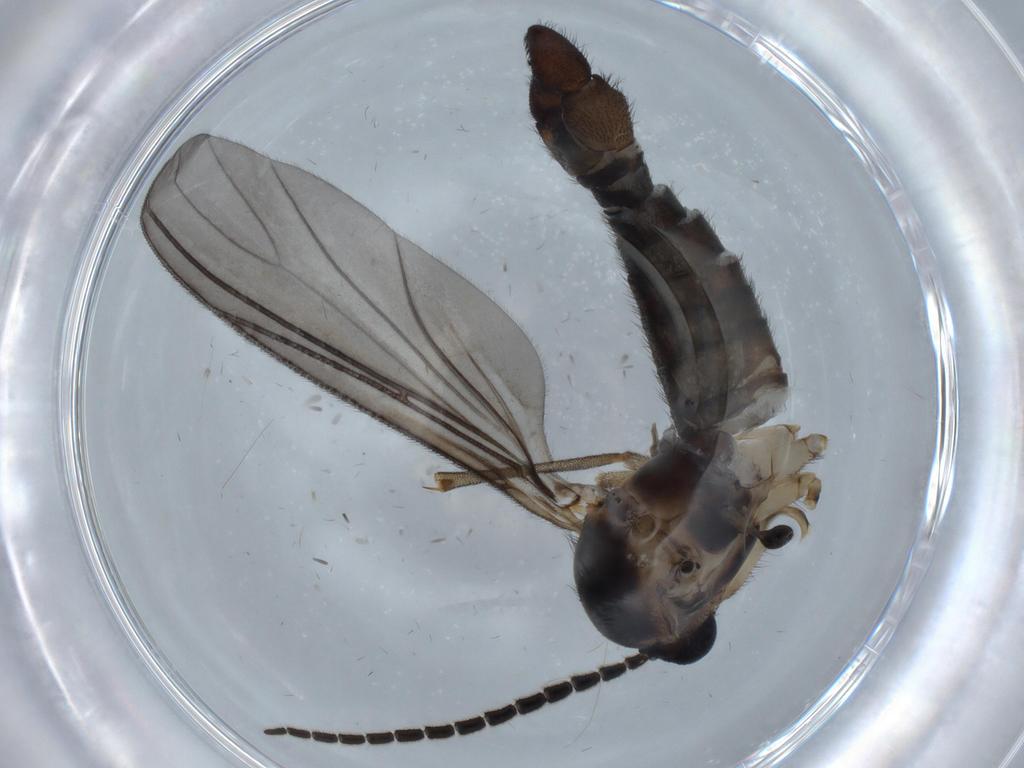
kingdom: Animalia
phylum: Arthropoda
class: Insecta
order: Diptera
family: Sciaridae
